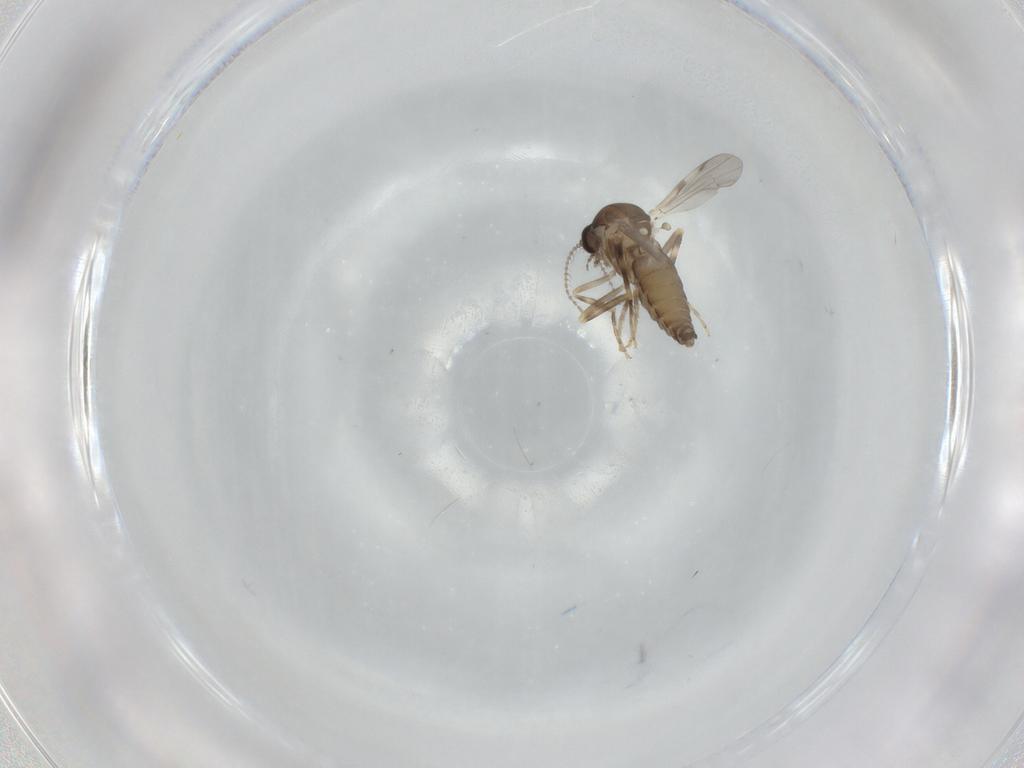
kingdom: Animalia
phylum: Arthropoda
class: Insecta
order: Diptera
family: Ceratopogonidae
